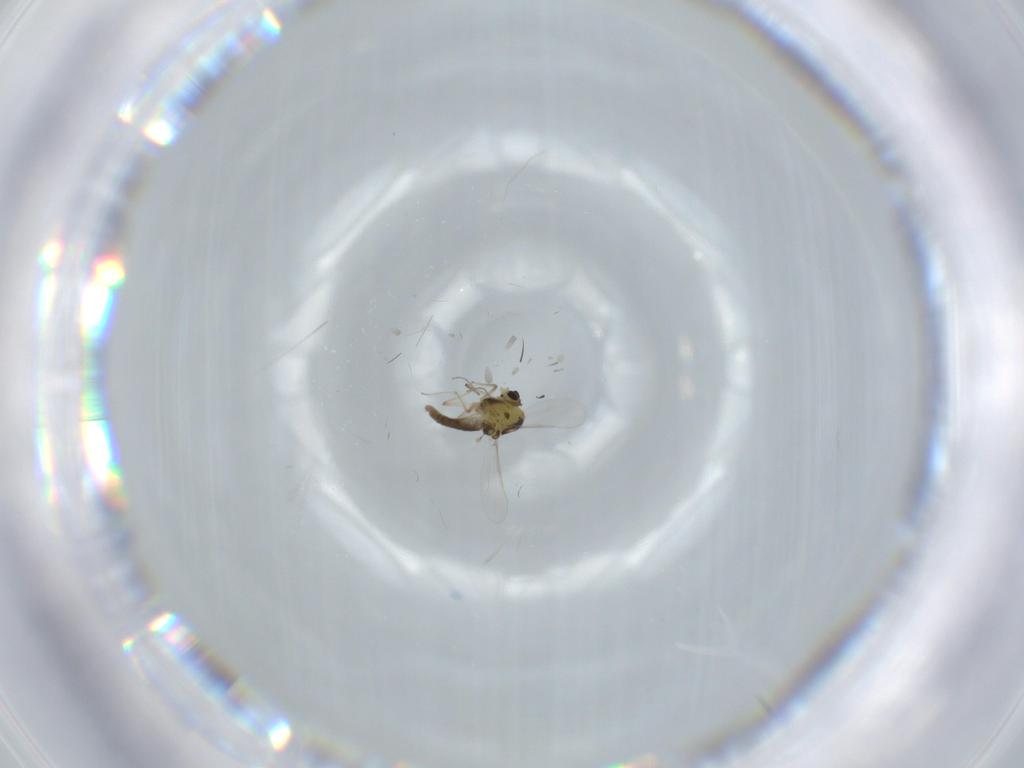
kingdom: Animalia
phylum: Arthropoda
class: Insecta
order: Diptera
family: Chironomidae
